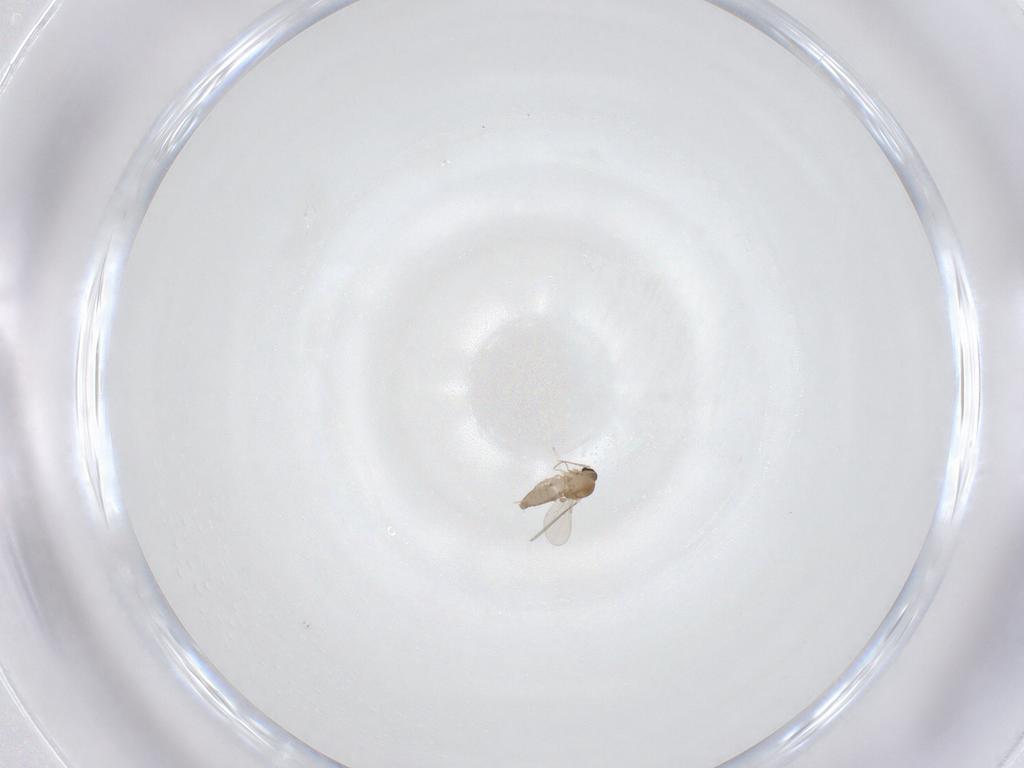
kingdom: Animalia
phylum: Arthropoda
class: Insecta
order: Diptera
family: Ceratopogonidae
